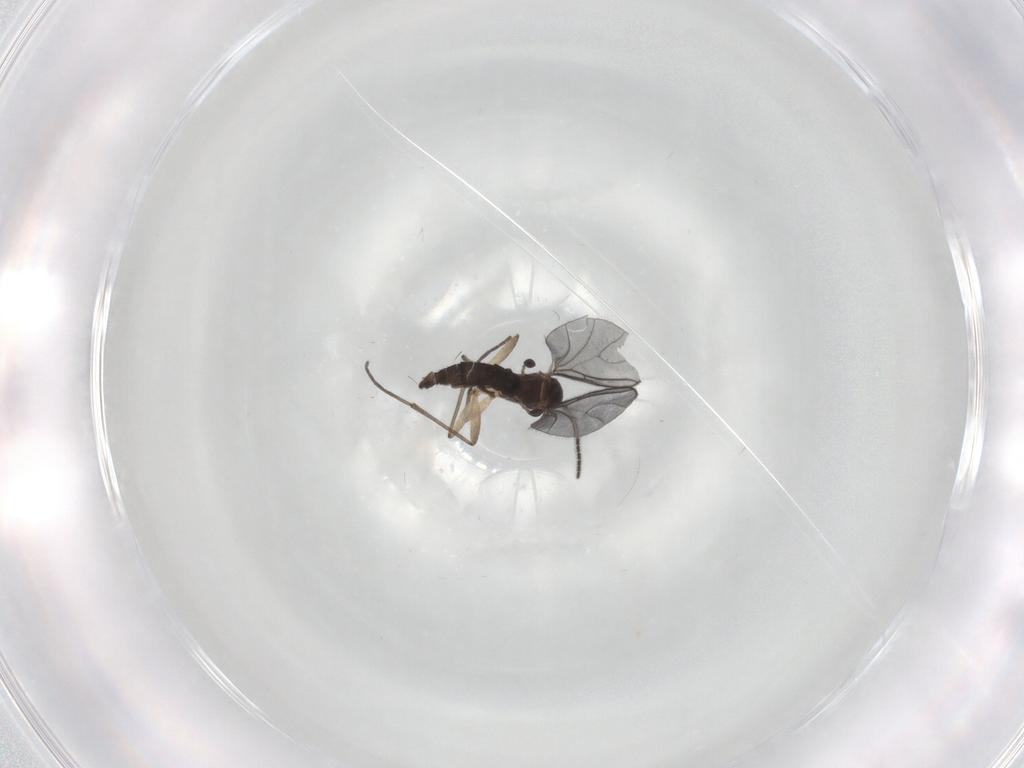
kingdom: Animalia
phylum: Arthropoda
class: Insecta
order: Diptera
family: Sciaridae
